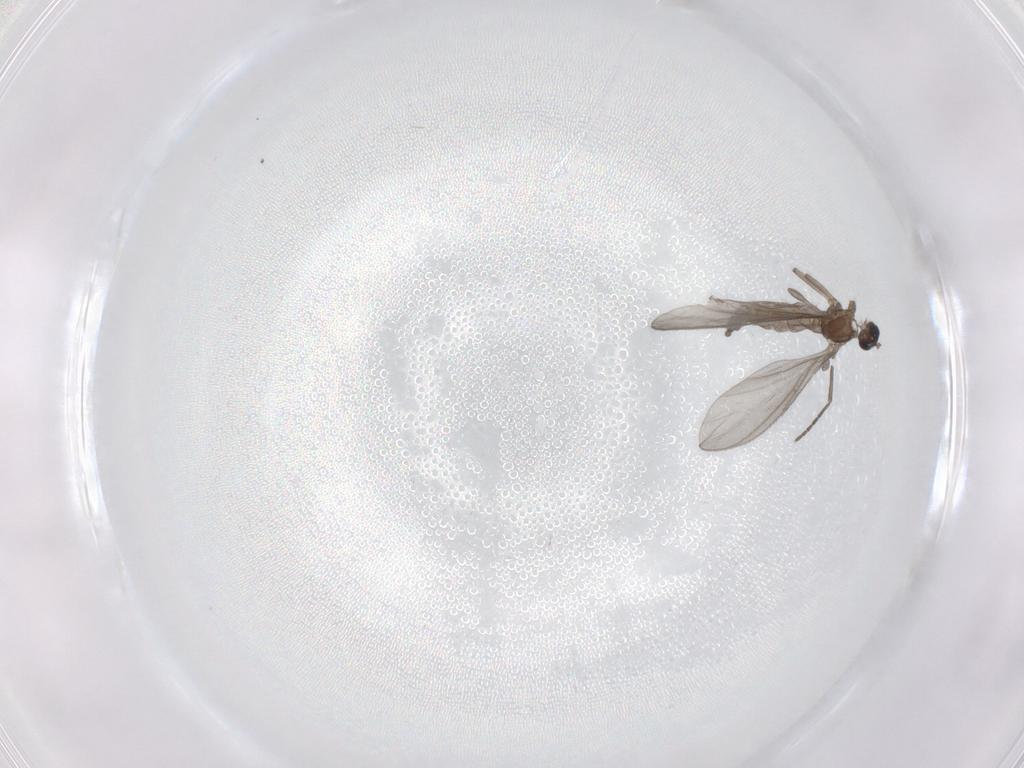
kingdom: Animalia
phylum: Arthropoda
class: Insecta
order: Diptera
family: Sciaridae
